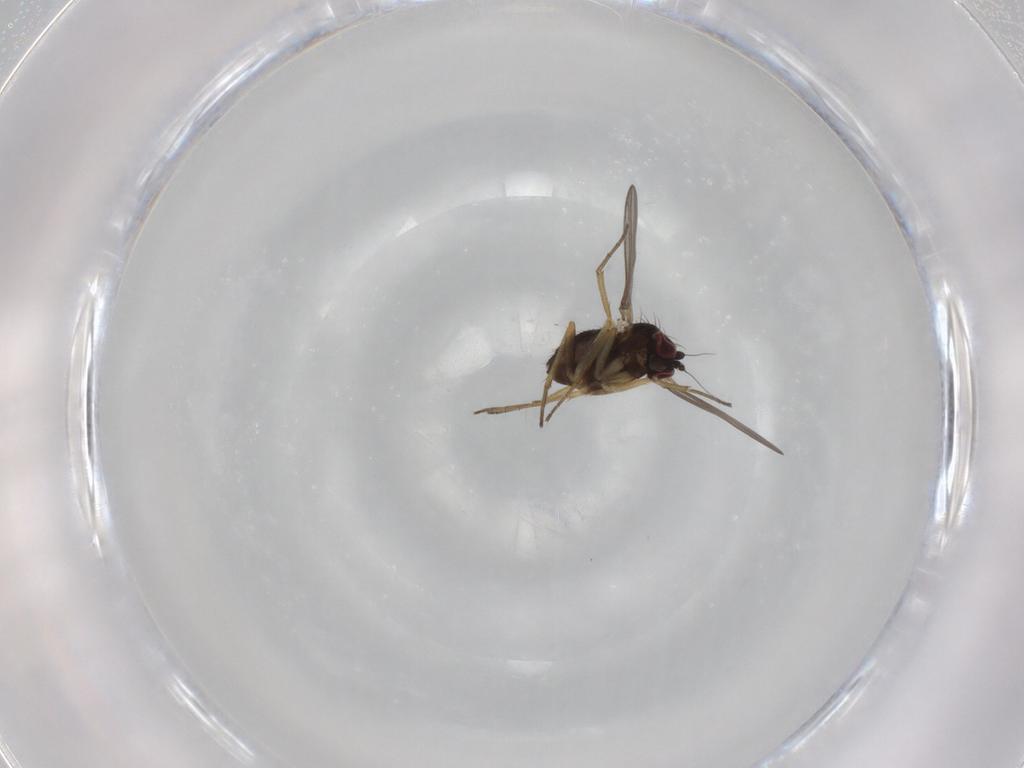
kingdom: Animalia
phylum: Arthropoda
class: Insecta
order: Diptera
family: Dolichopodidae
